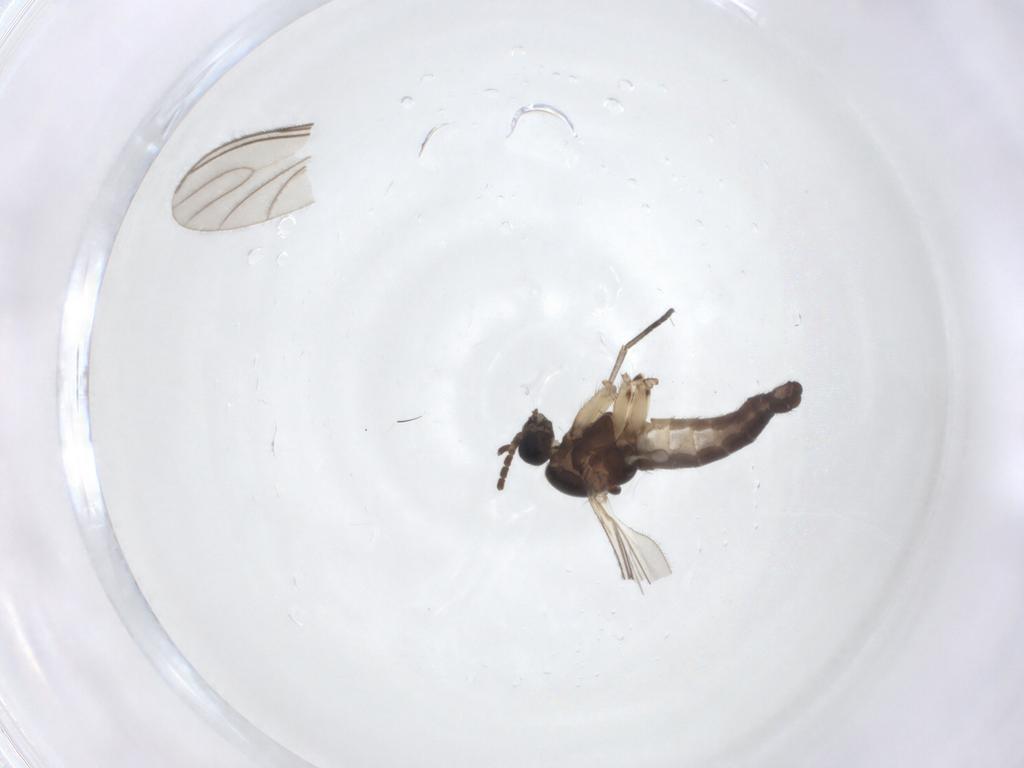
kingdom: Animalia
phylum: Arthropoda
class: Insecta
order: Diptera
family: Sciaridae
